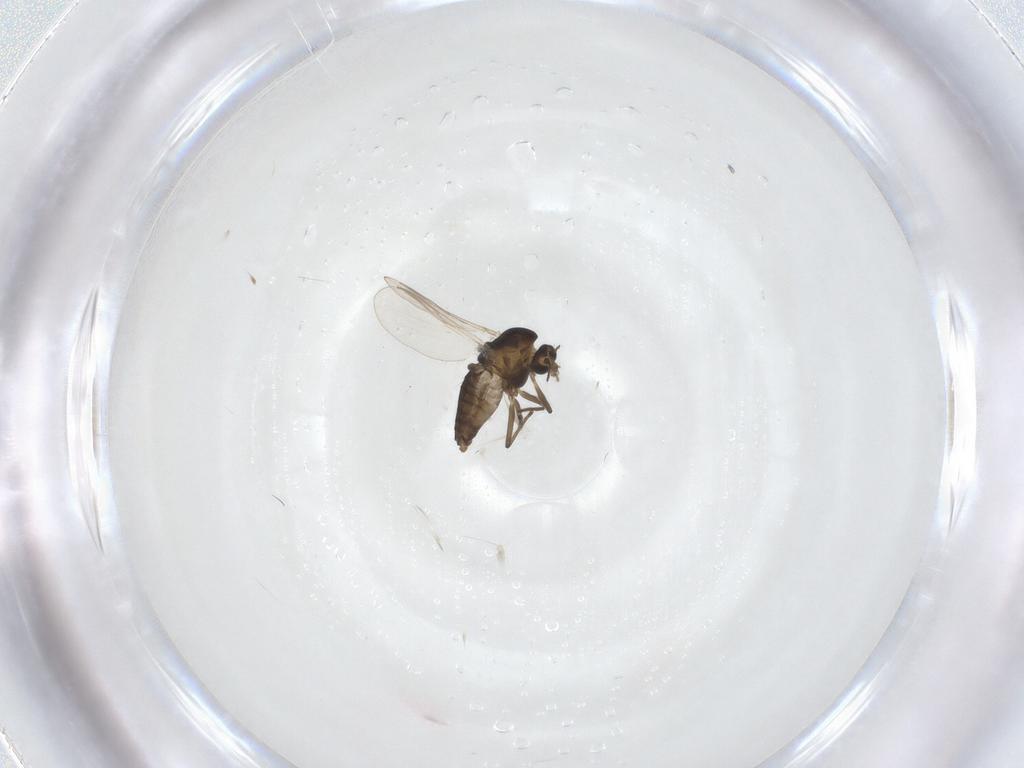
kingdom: Animalia
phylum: Arthropoda
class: Insecta
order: Diptera
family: Chironomidae
